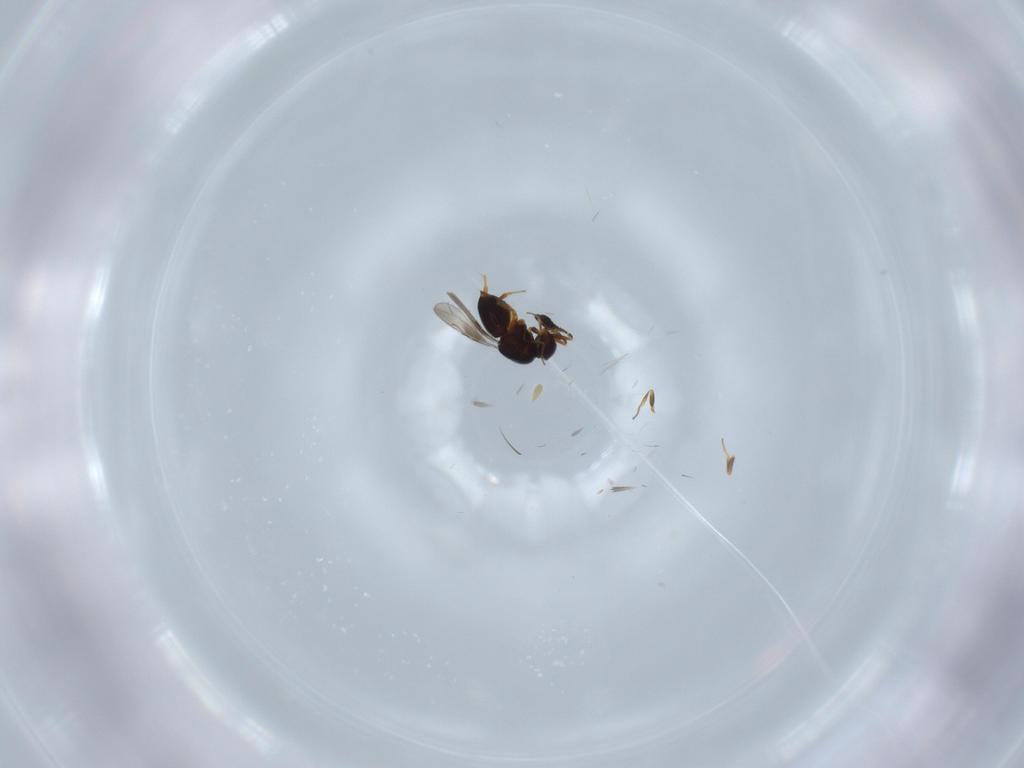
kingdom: Animalia
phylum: Arthropoda
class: Insecta
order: Hymenoptera
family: Ceraphronidae
